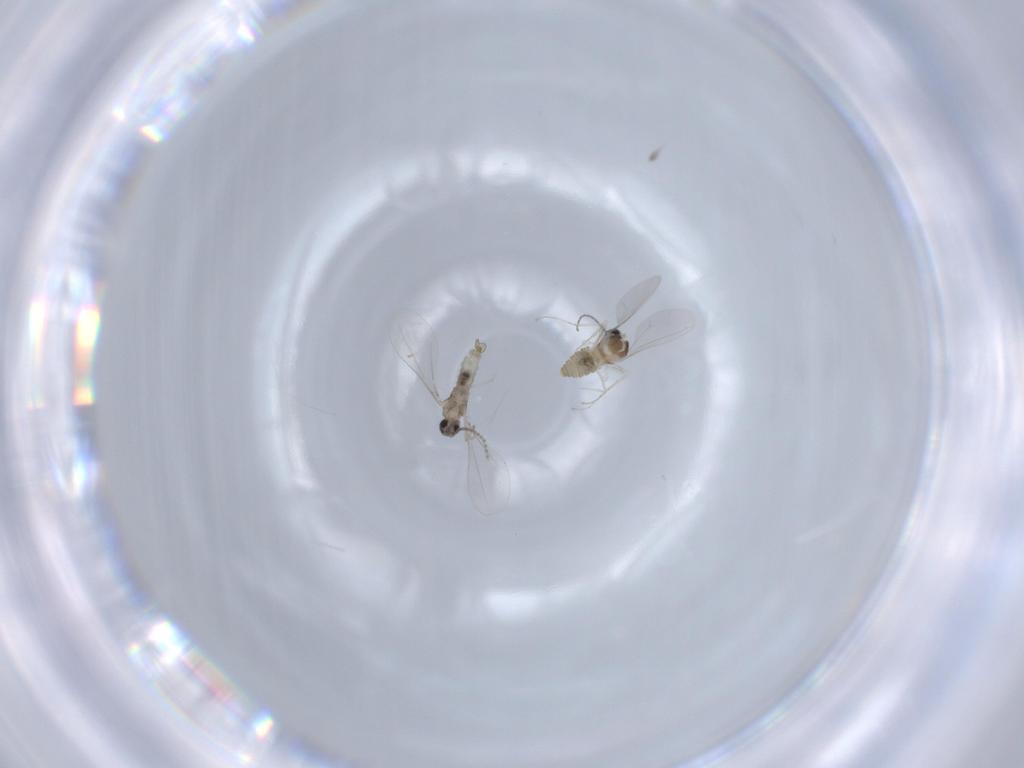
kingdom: Animalia
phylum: Arthropoda
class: Insecta
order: Diptera
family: Cecidomyiidae
